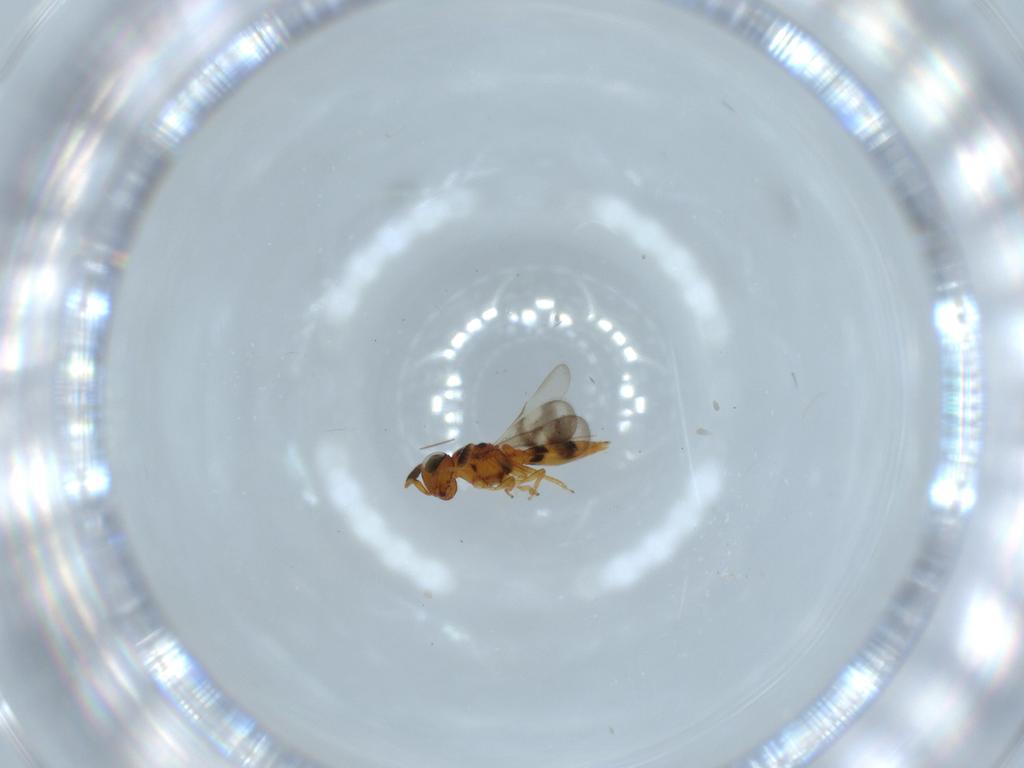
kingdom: Animalia
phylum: Arthropoda
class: Insecta
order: Hymenoptera
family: Scelionidae
